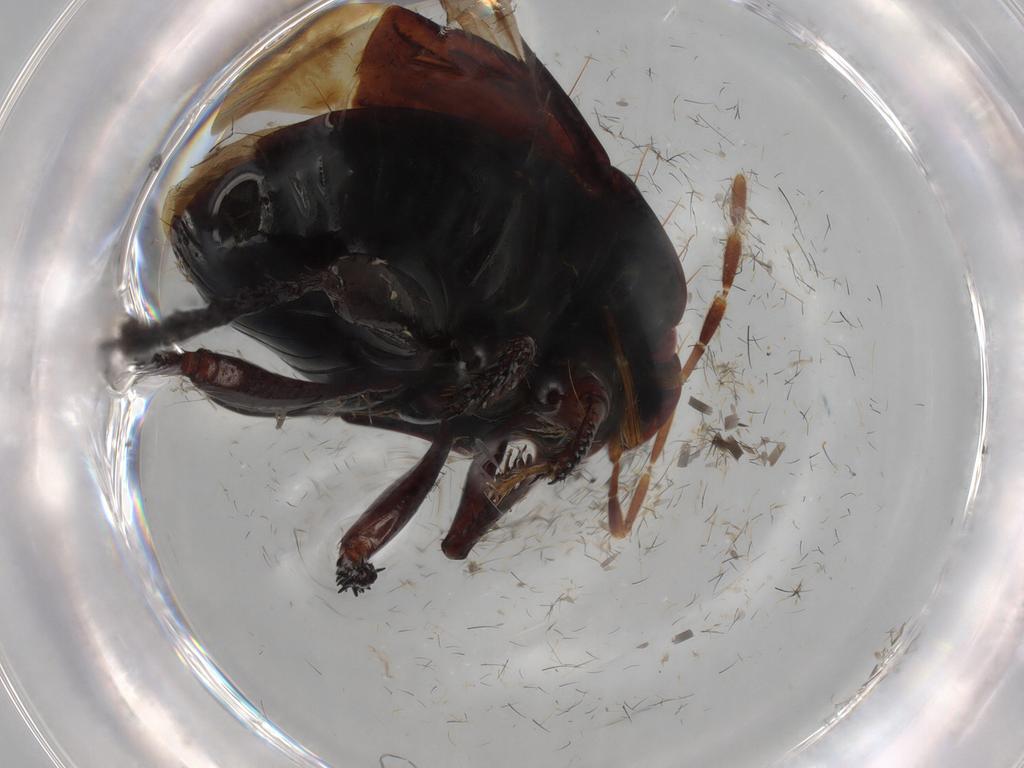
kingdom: Animalia
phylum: Arthropoda
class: Insecta
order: Hemiptera
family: Cydnidae
